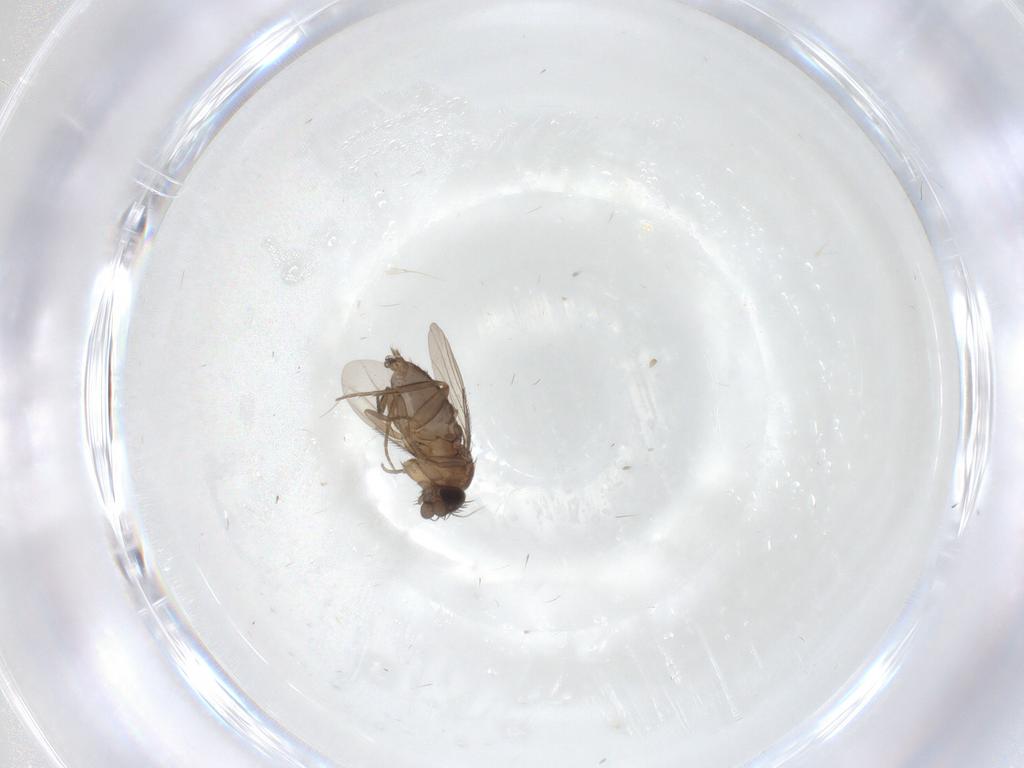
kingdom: Animalia
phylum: Arthropoda
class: Insecta
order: Diptera
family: Phoridae
